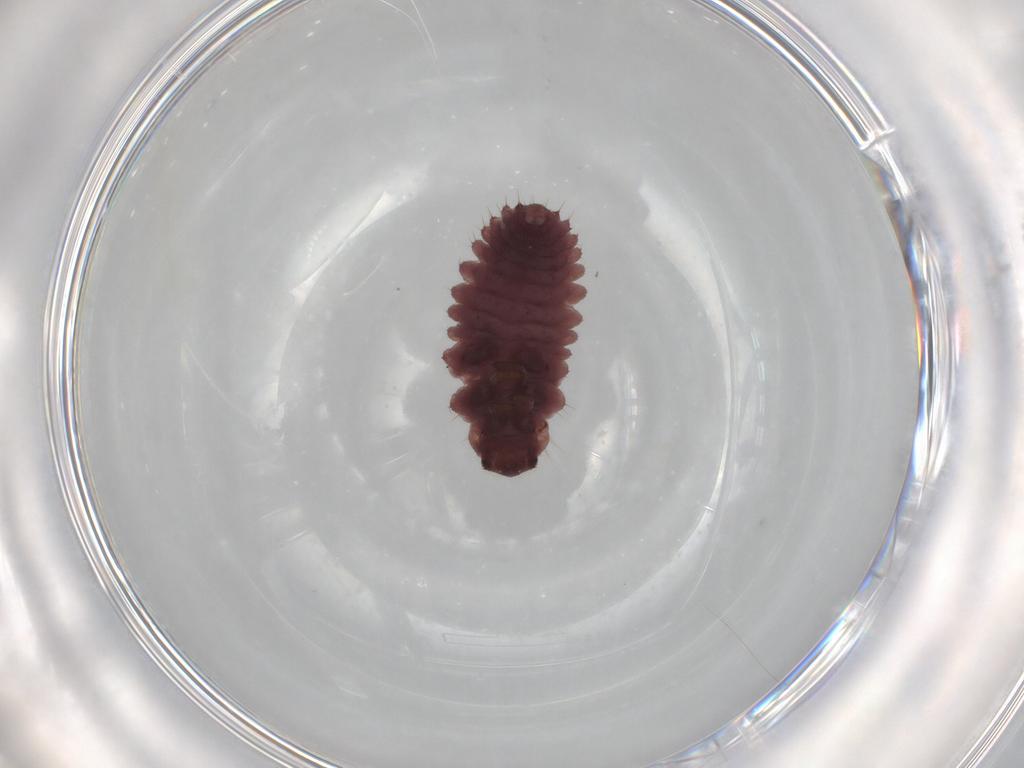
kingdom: Animalia
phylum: Arthropoda
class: Insecta
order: Coleoptera
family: Coccinellidae
